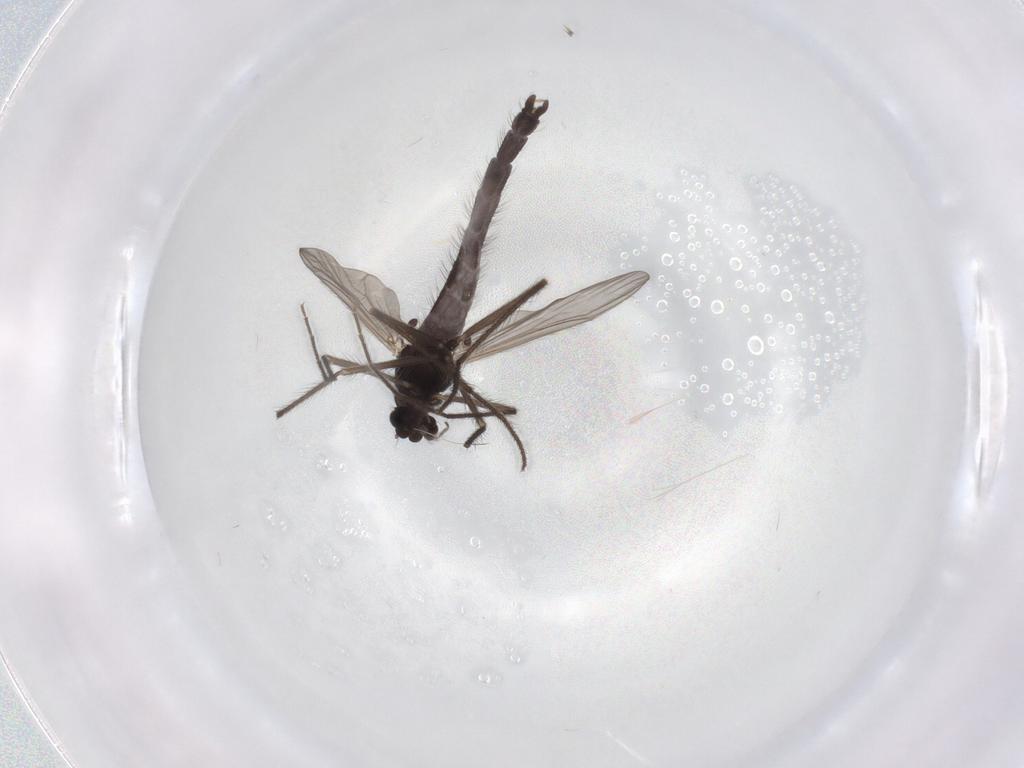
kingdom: Animalia
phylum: Arthropoda
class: Insecta
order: Diptera
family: Chironomidae
